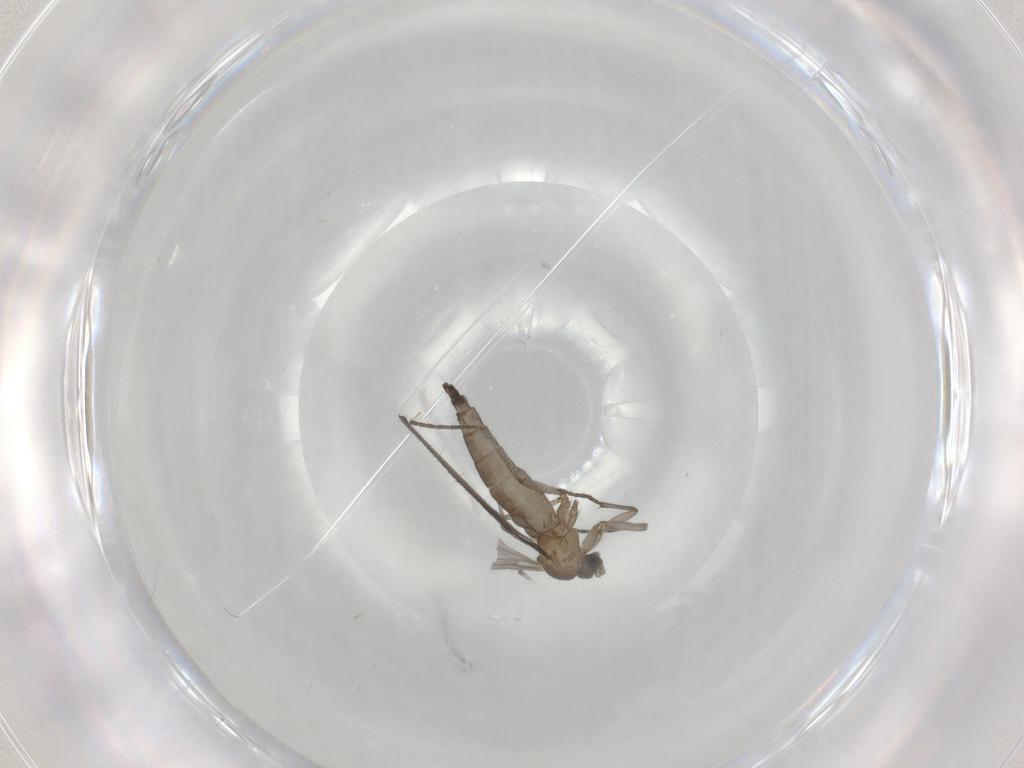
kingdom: Animalia
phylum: Arthropoda
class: Insecta
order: Diptera
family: Sciaridae
